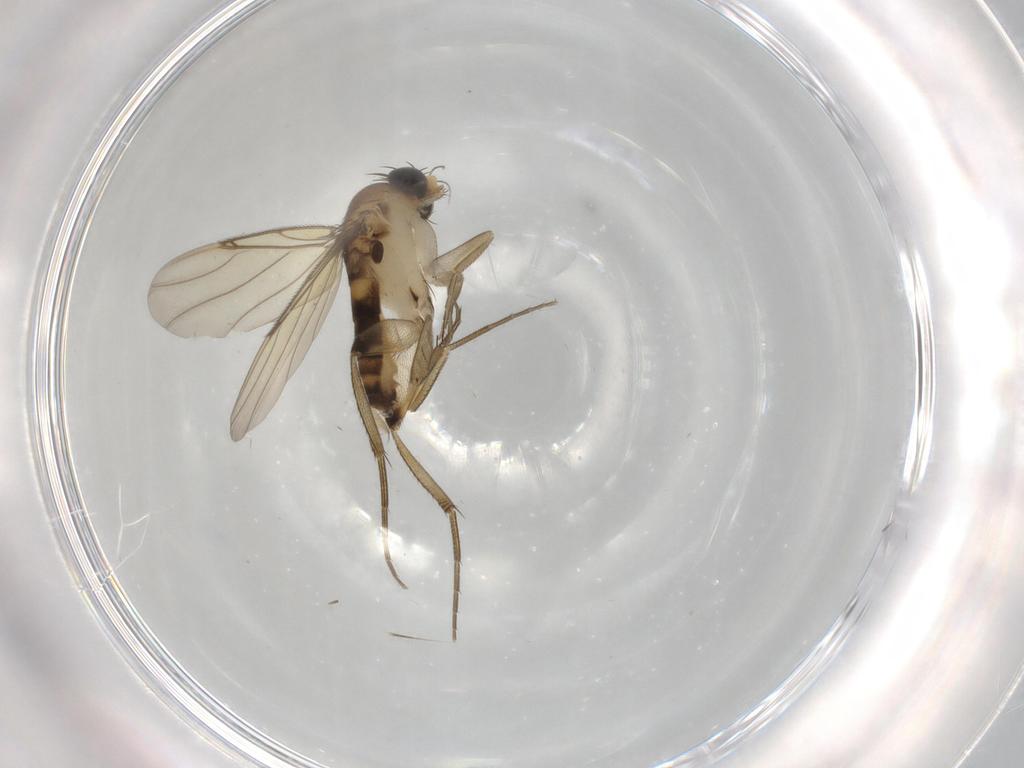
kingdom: Animalia
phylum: Arthropoda
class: Insecta
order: Diptera
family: Phoridae
